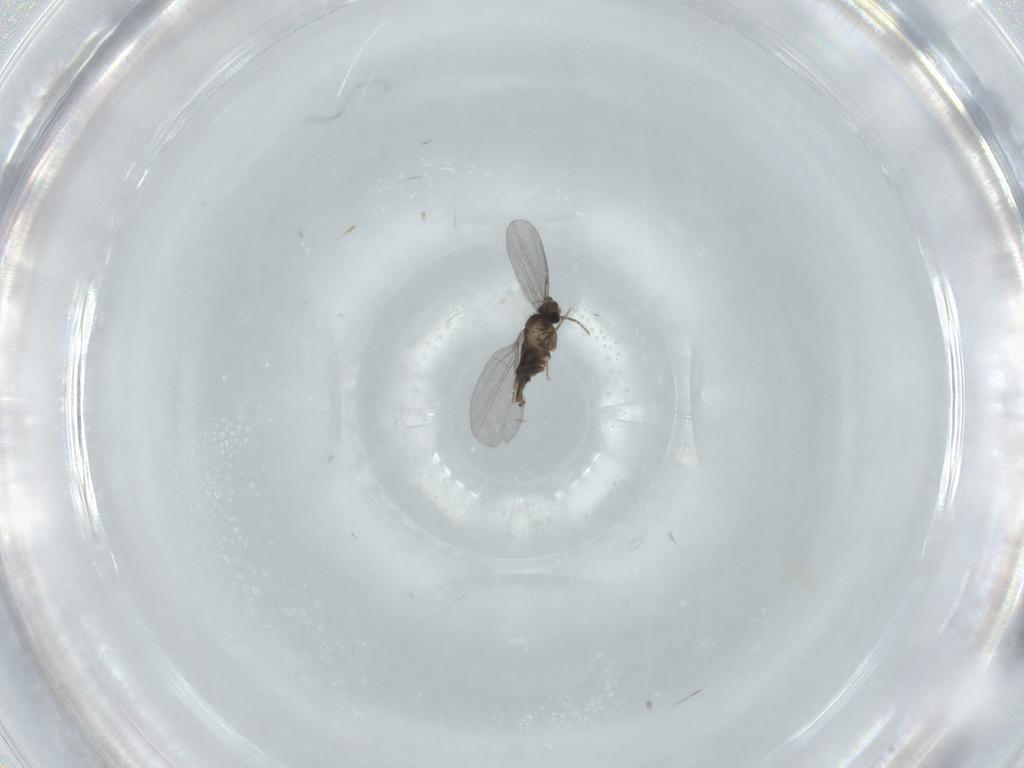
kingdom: Animalia
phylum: Arthropoda
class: Insecta
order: Diptera
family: Phoridae
